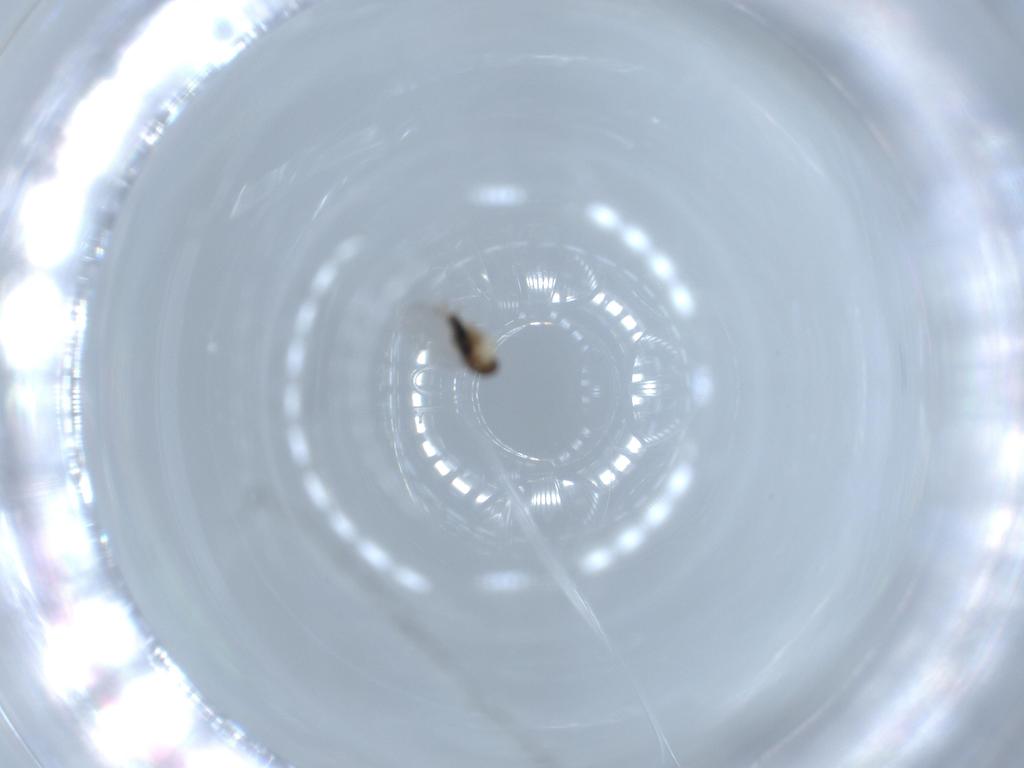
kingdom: Animalia
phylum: Arthropoda
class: Insecta
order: Diptera
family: Phoridae
